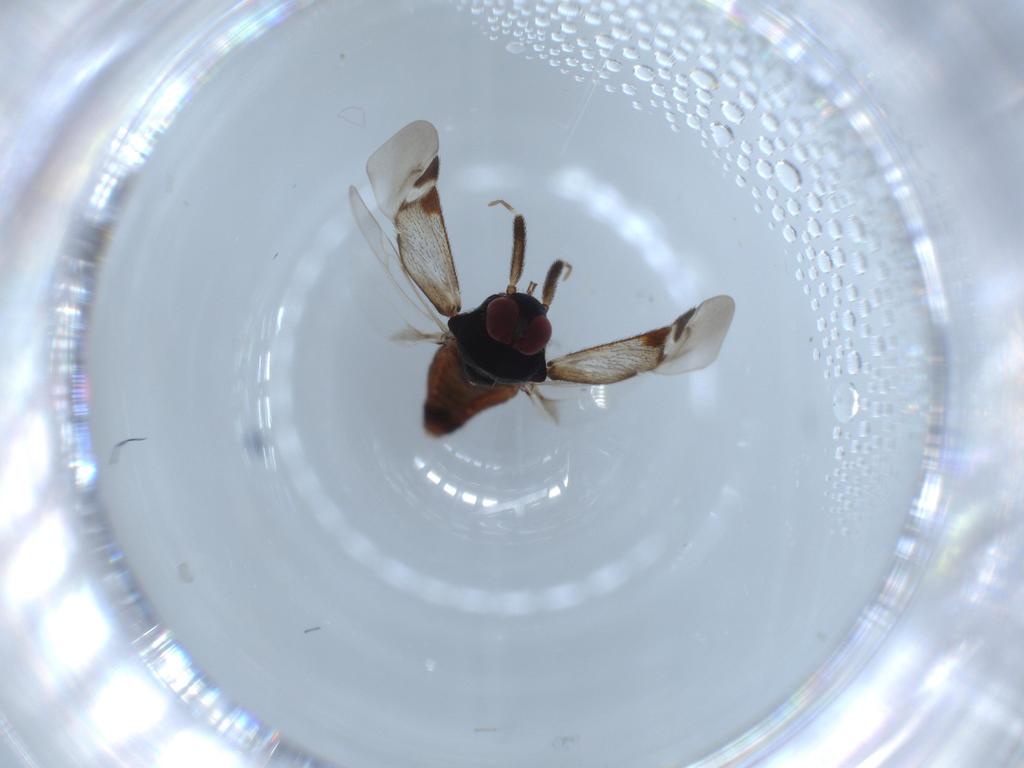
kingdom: Animalia
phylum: Arthropoda
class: Insecta
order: Hemiptera
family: Miridae
